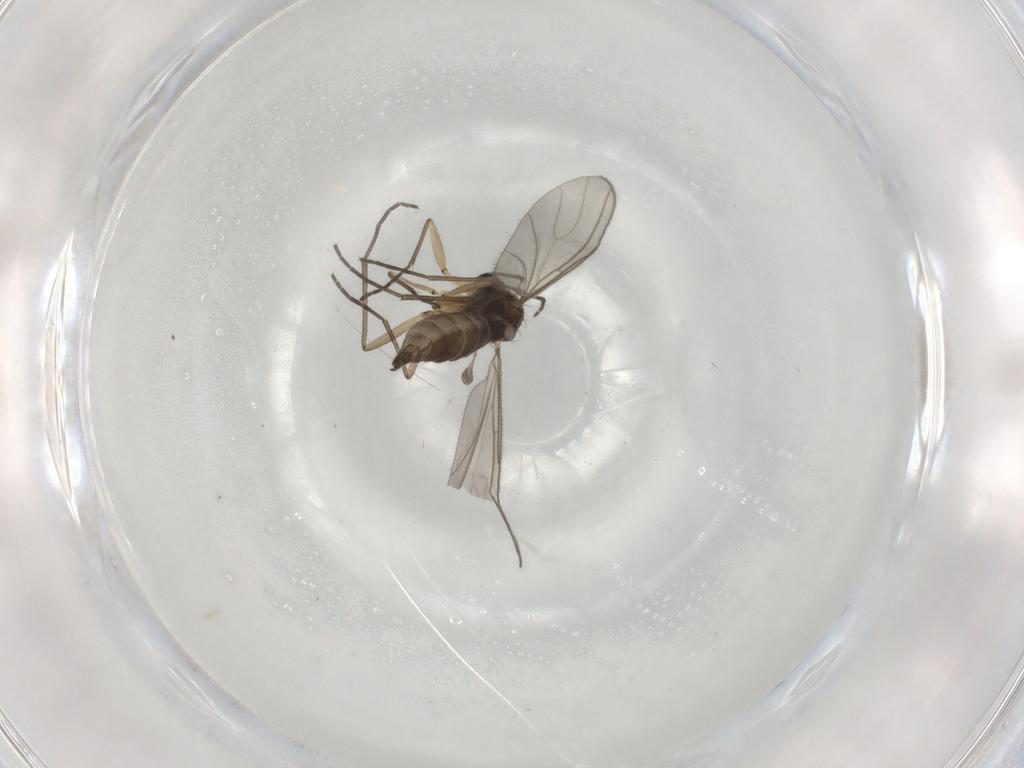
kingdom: Animalia
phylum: Arthropoda
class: Insecta
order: Diptera
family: Sciaridae
